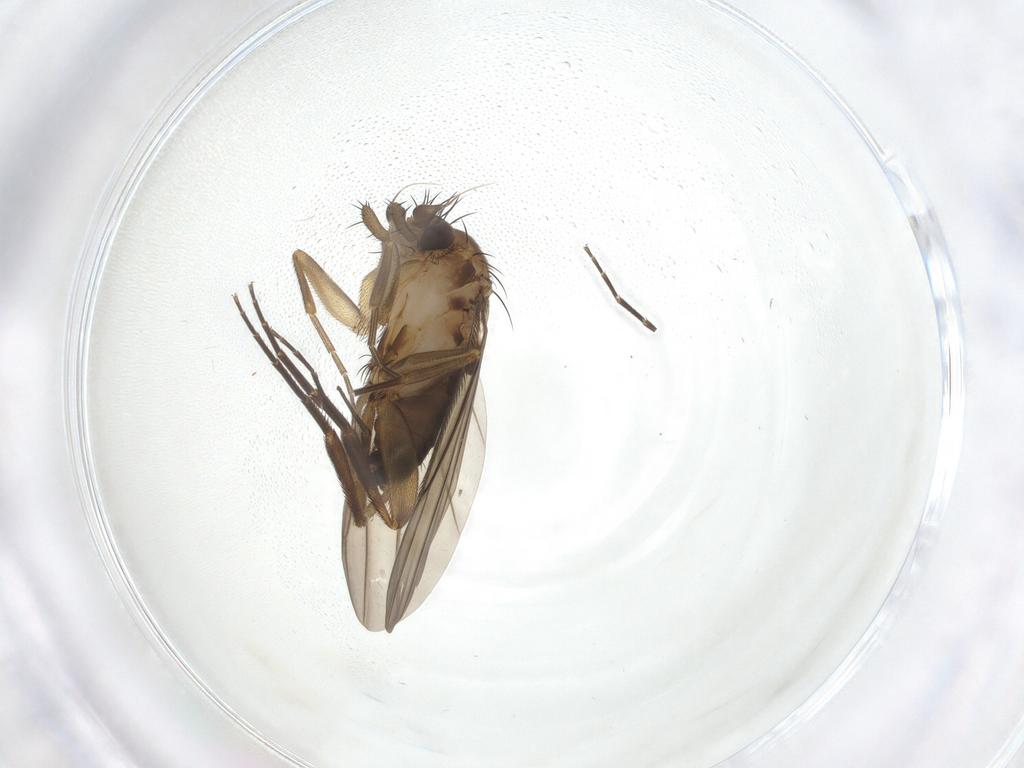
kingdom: Animalia
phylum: Arthropoda
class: Insecta
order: Diptera
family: Phoridae
